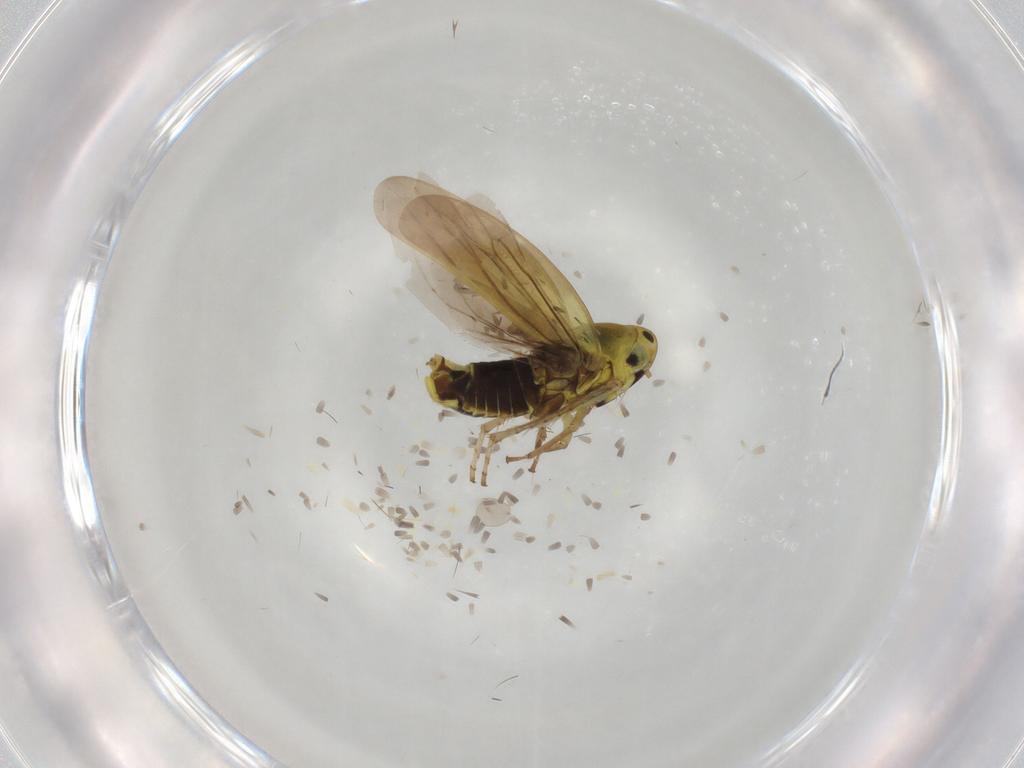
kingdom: Animalia
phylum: Arthropoda
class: Insecta
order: Hemiptera
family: Cicadellidae
